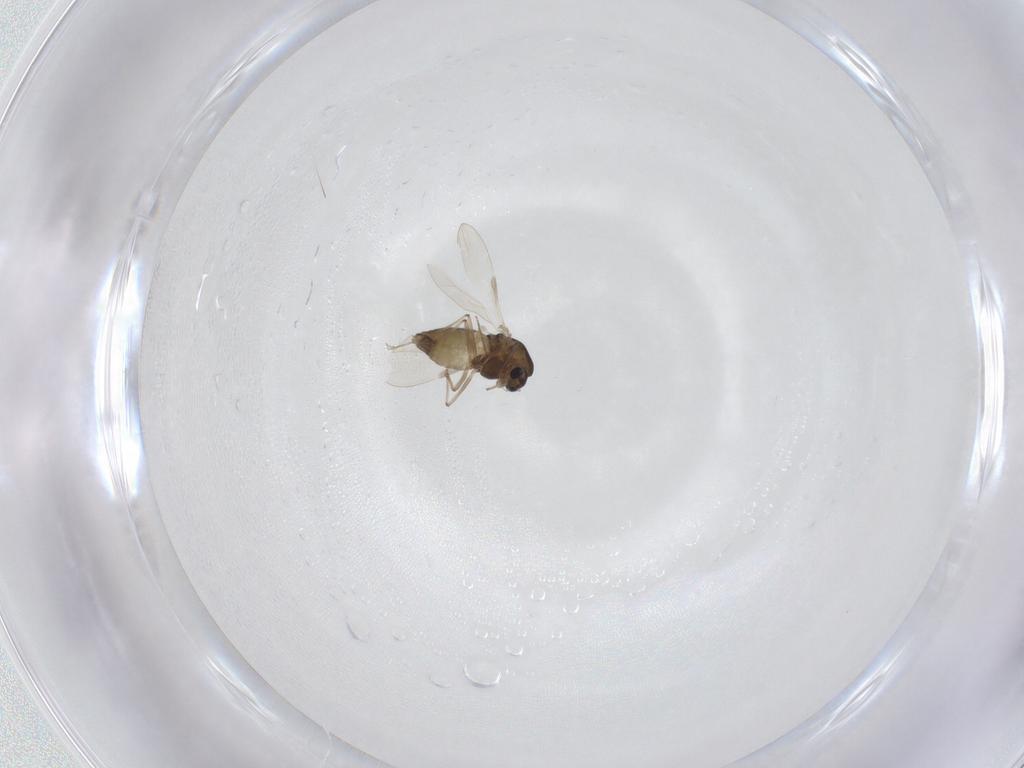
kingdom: Animalia
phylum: Arthropoda
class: Insecta
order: Diptera
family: Chironomidae
